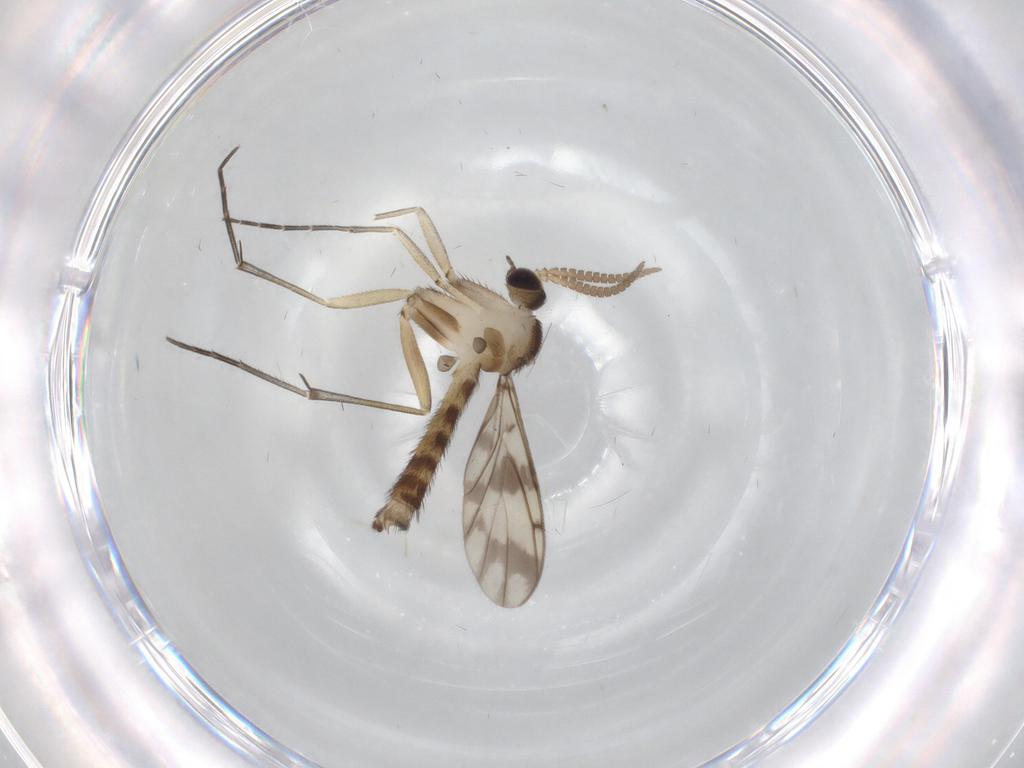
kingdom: Animalia
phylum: Arthropoda
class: Insecta
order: Diptera
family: Keroplatidae
